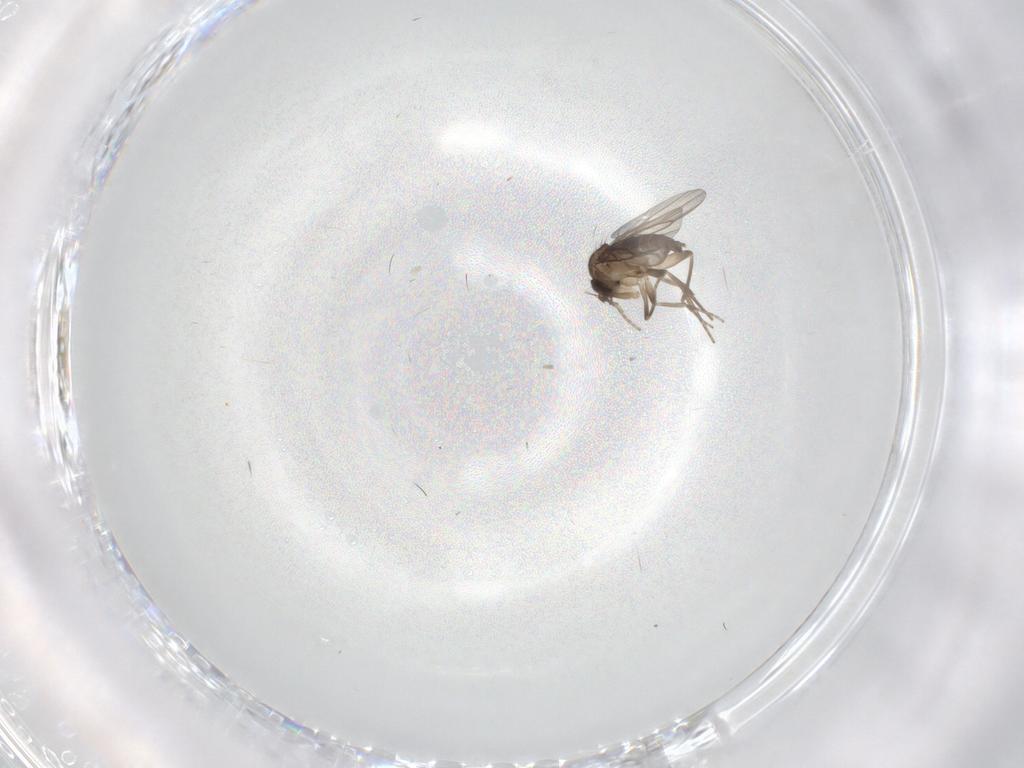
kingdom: Animalia
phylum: Arthropoda
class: Insecta
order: Diptera
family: Phoridae
